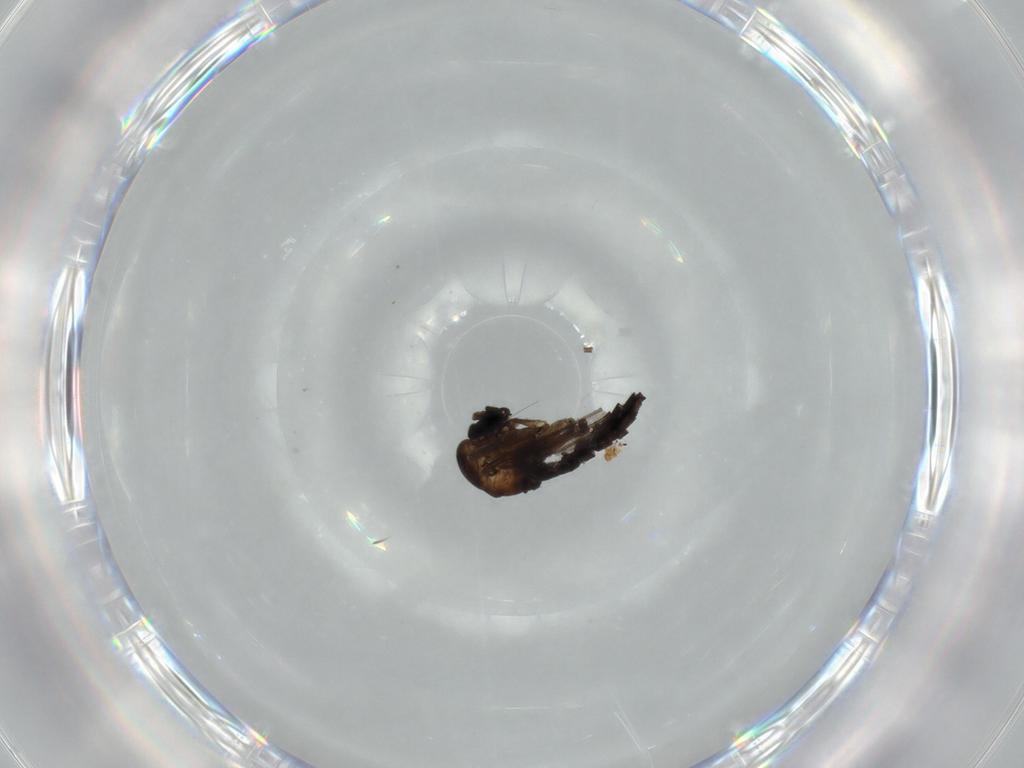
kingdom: Animalia
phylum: Arthropoda
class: Insecta
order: Diptera
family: Sciaridae
